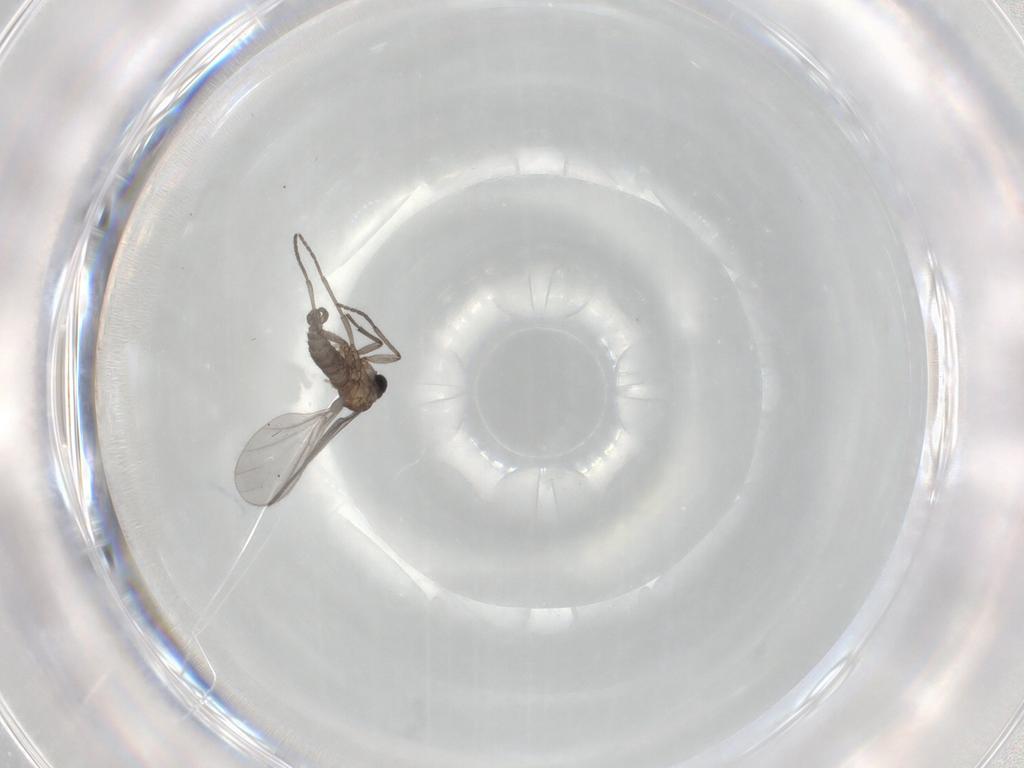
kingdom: Animalia
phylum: Arthropoda
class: Insecta
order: Diptera
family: Sciaridae
